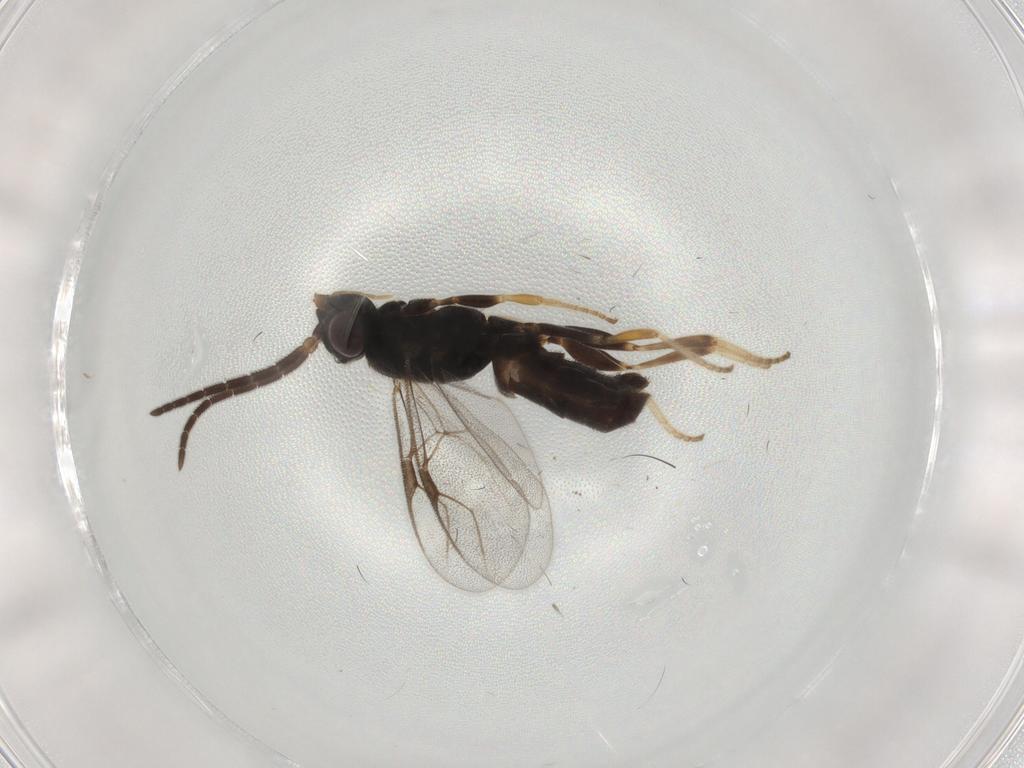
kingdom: Animalia
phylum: Arthropoda
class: Insecta
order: Hymenoptera
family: Dryinidae
